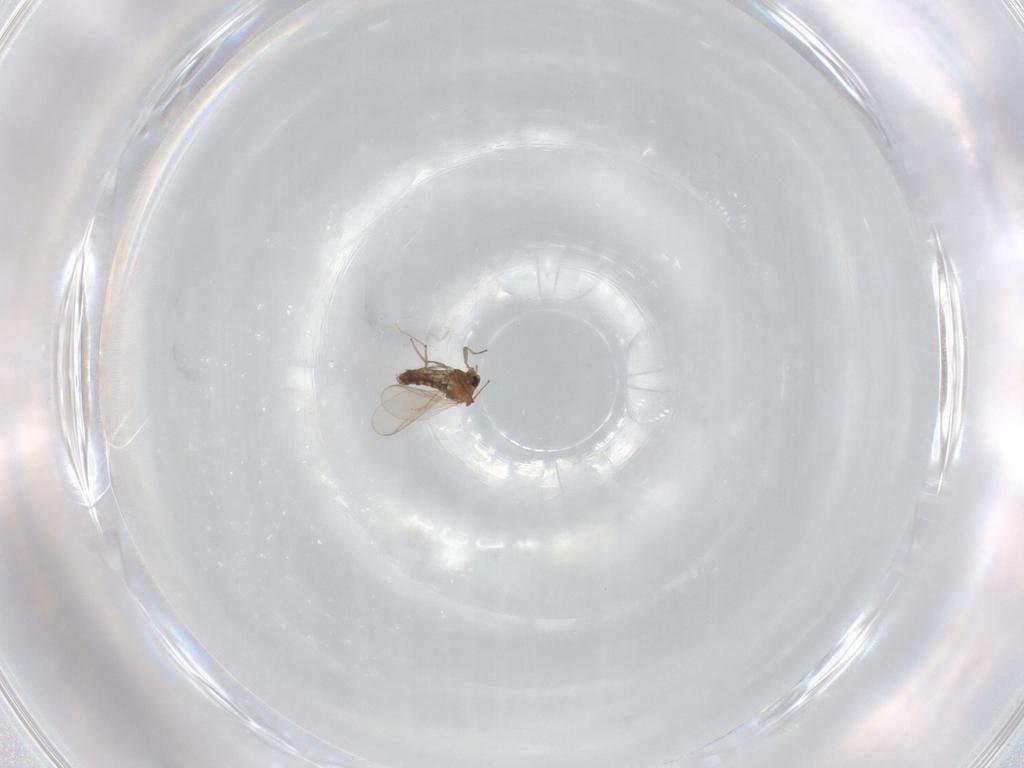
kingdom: Animalia
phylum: Arthropoda
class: Insecta
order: Diptera
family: Chironomidae
